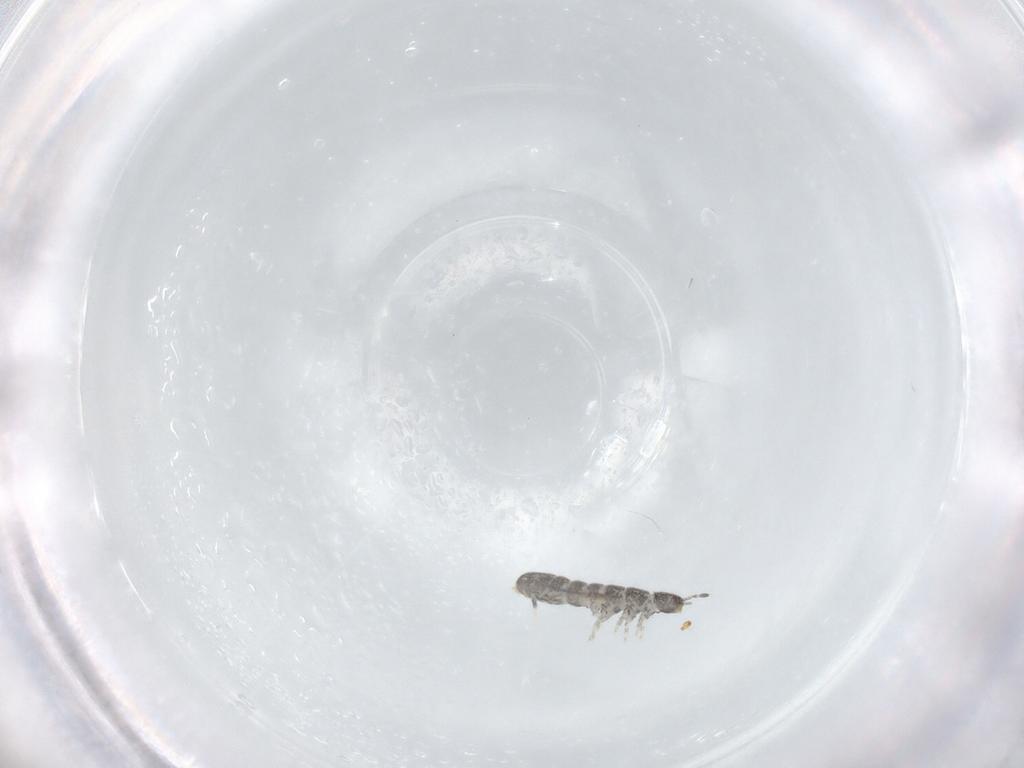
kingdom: Animalia
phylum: Arthropoda
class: Collembola
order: Entomobryomorpha
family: Isotomidae
